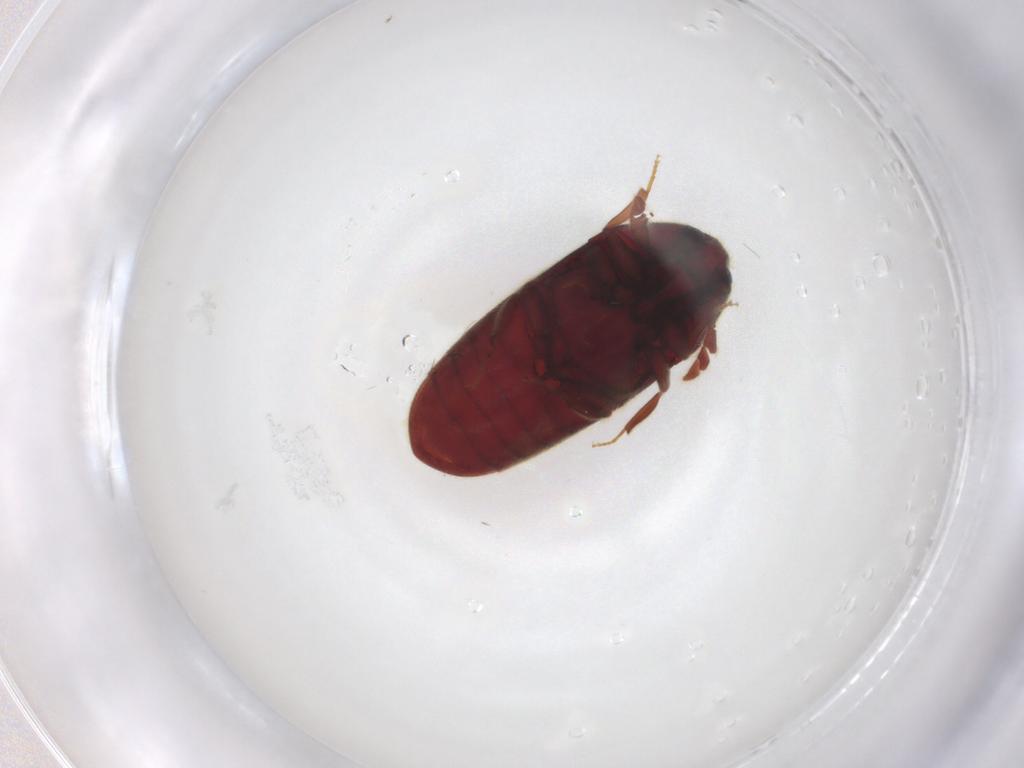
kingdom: Animalia
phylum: Arthropoda
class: Insecta
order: Coleoptera
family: Throscidae
